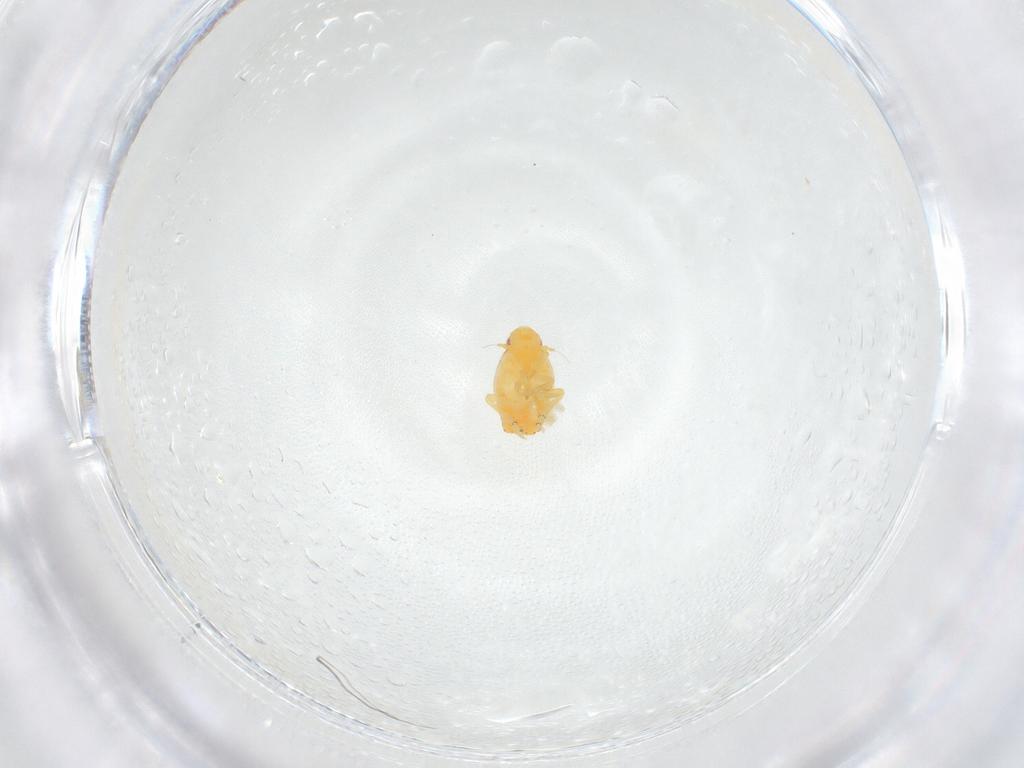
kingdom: Animalia
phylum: Arthropoda
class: Insecta
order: Hemiptera
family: Flatidae
